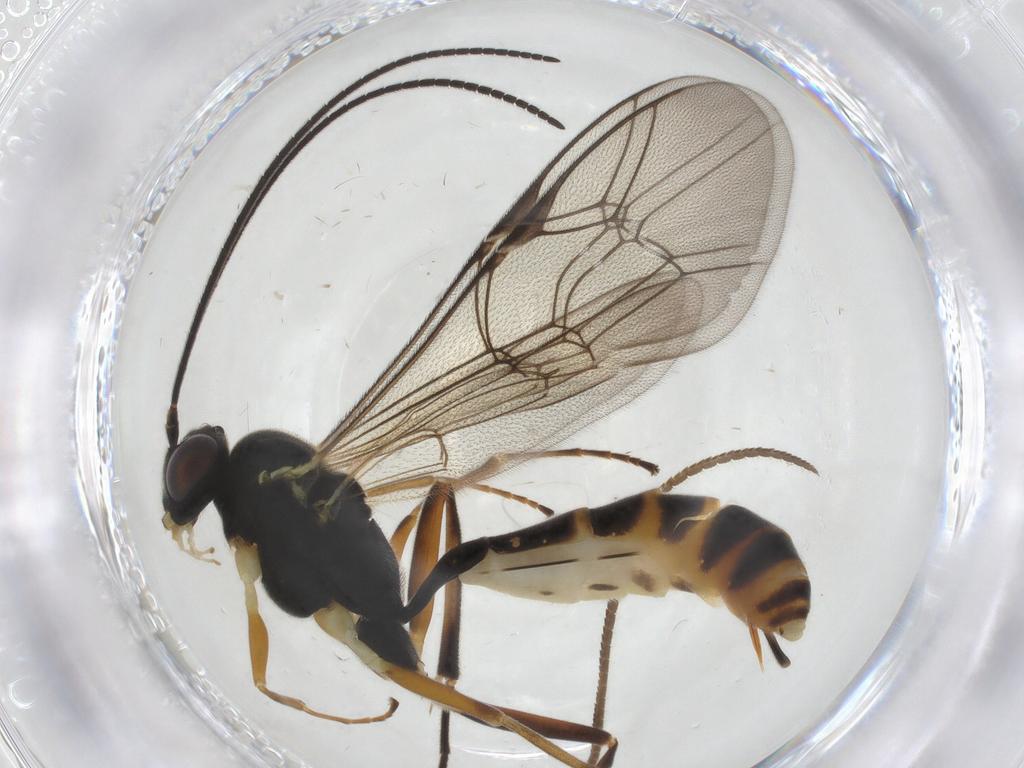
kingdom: Animalia
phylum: Arthropoda
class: Insecta
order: Hymenoptera
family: Ichneumonidae
